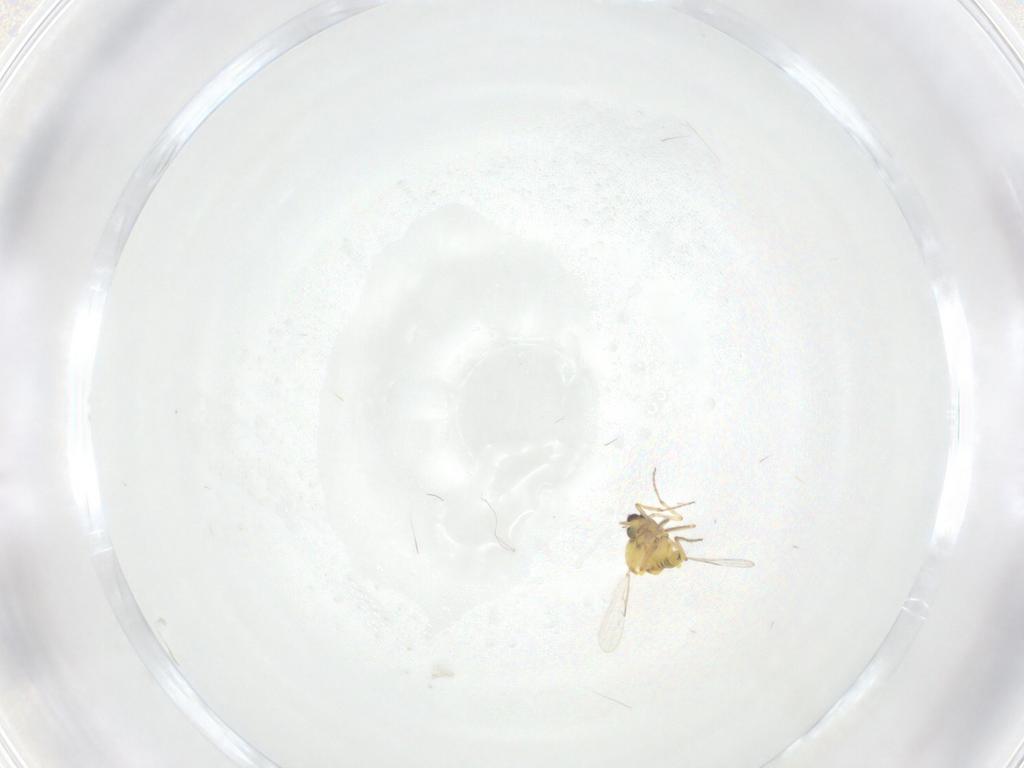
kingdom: Animalia
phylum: Arthropoda
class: Insecta
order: Diptera
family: Ceratopogonidae
